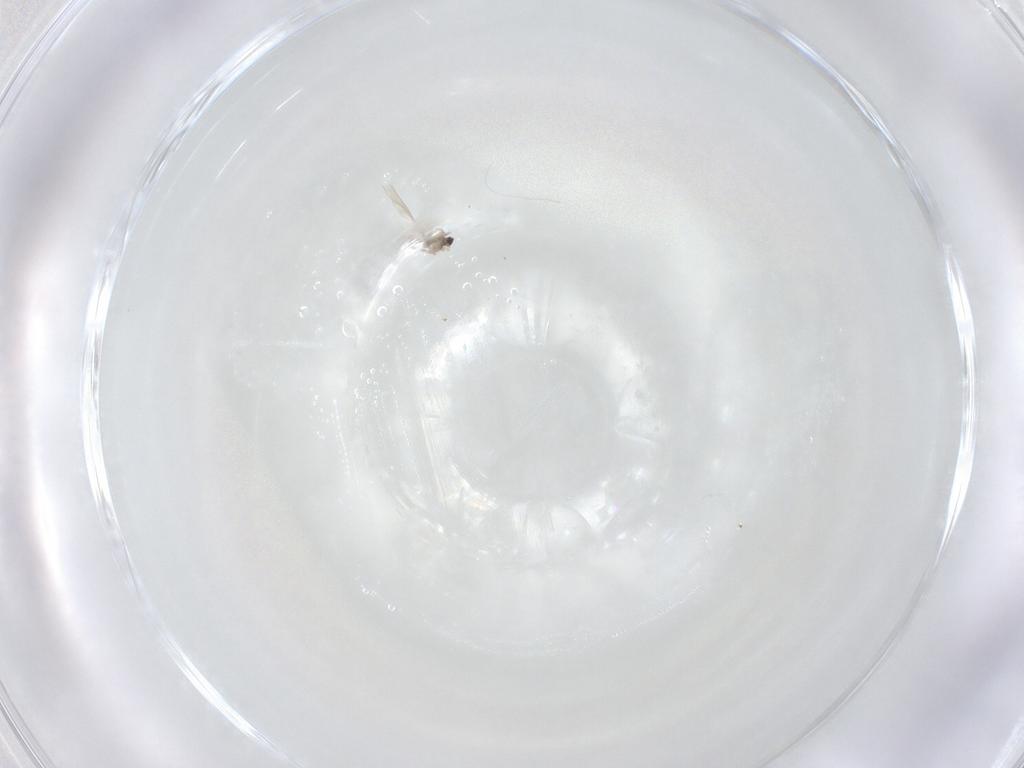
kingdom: Animalia
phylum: Arthropoda
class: Insecta
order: Diptera
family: Cecidomyiidae
